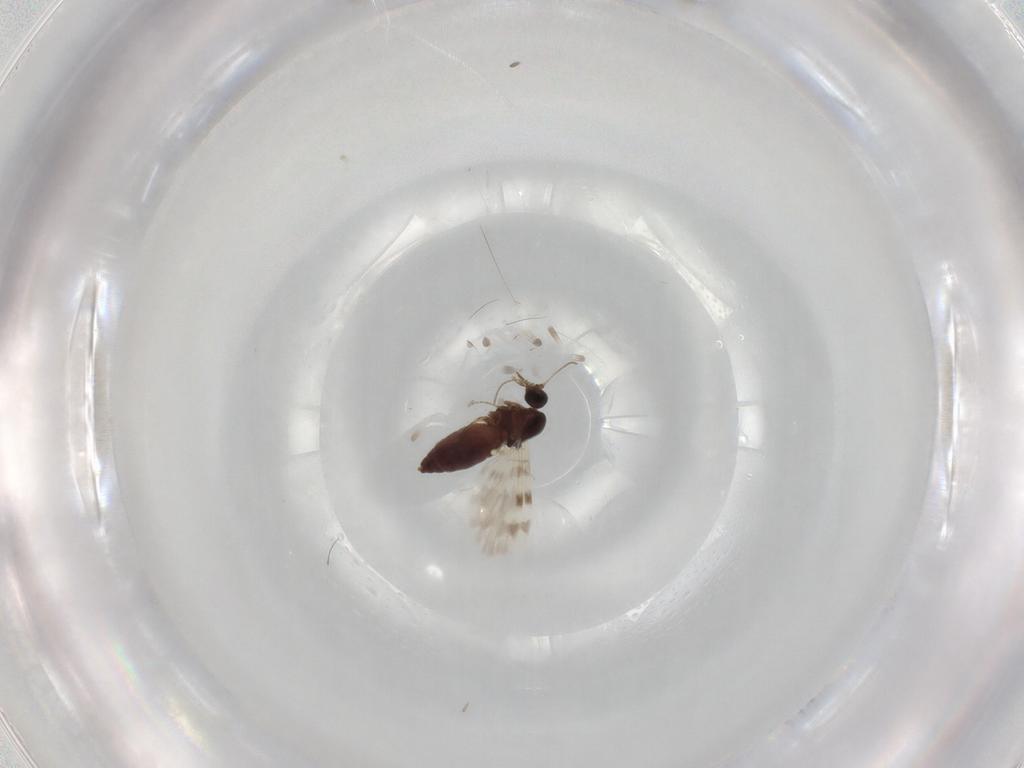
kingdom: Animalia
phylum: Arthropoda
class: Insecta
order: Diptera
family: Ceratopogonidae
